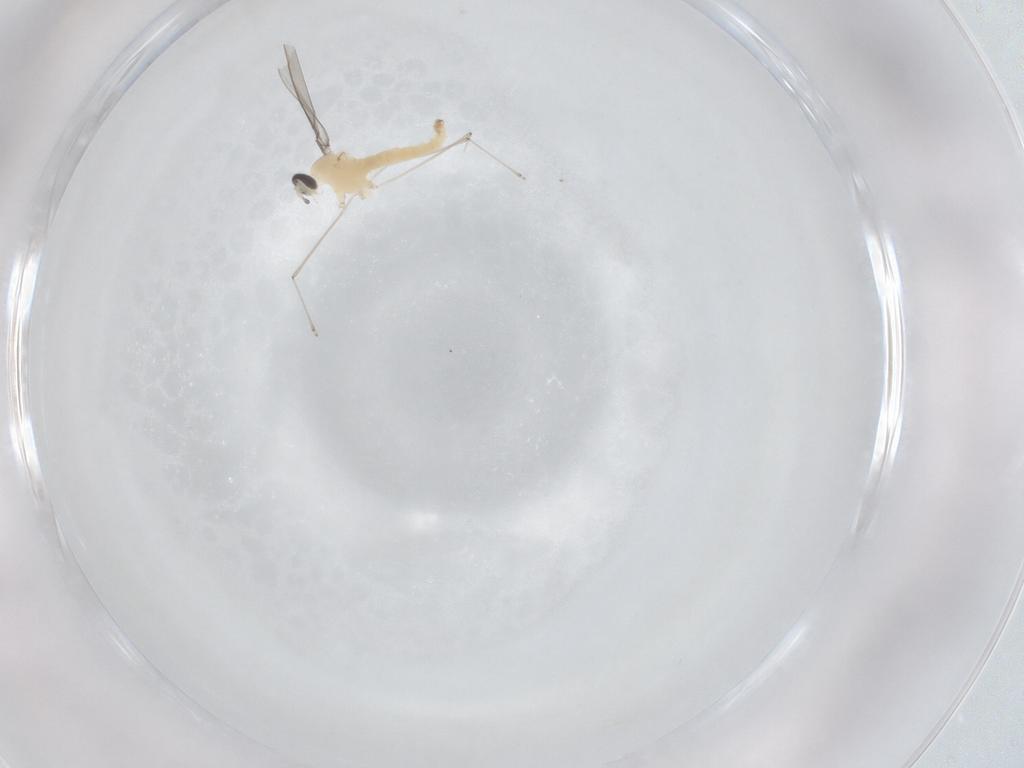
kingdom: Animalia
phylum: Arthropoda
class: Insecta
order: Diptera
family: Cecidomyiidae
